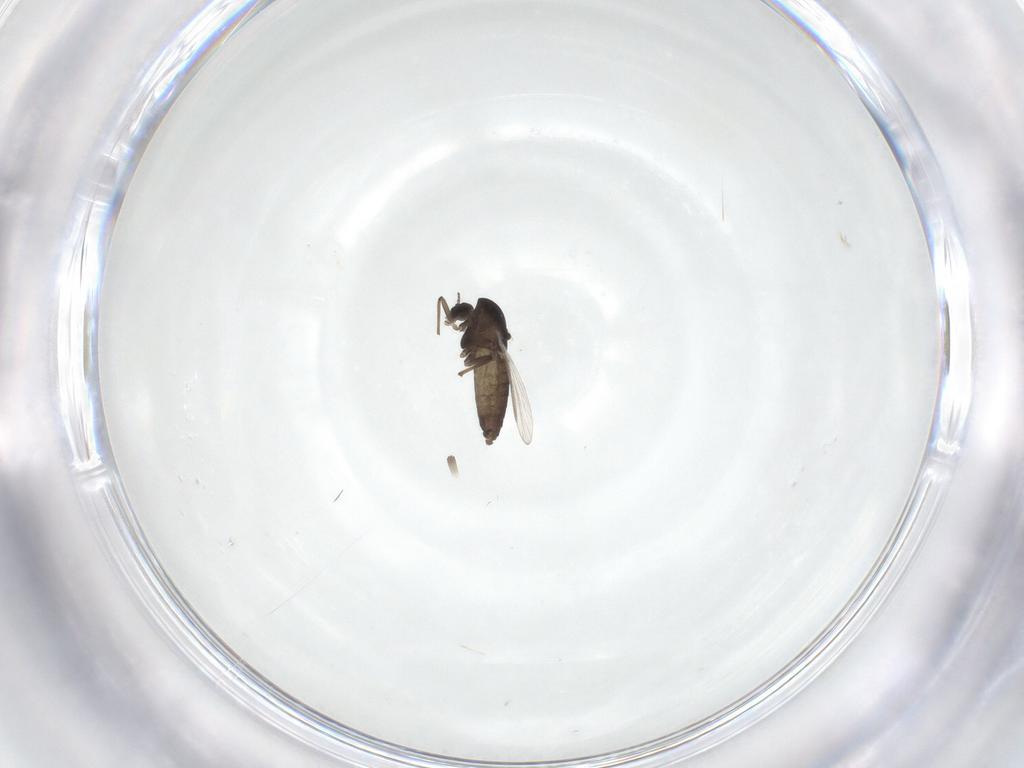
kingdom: Animalia
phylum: Arthropoda
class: Insecta
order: Diptera
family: Chironomidae
